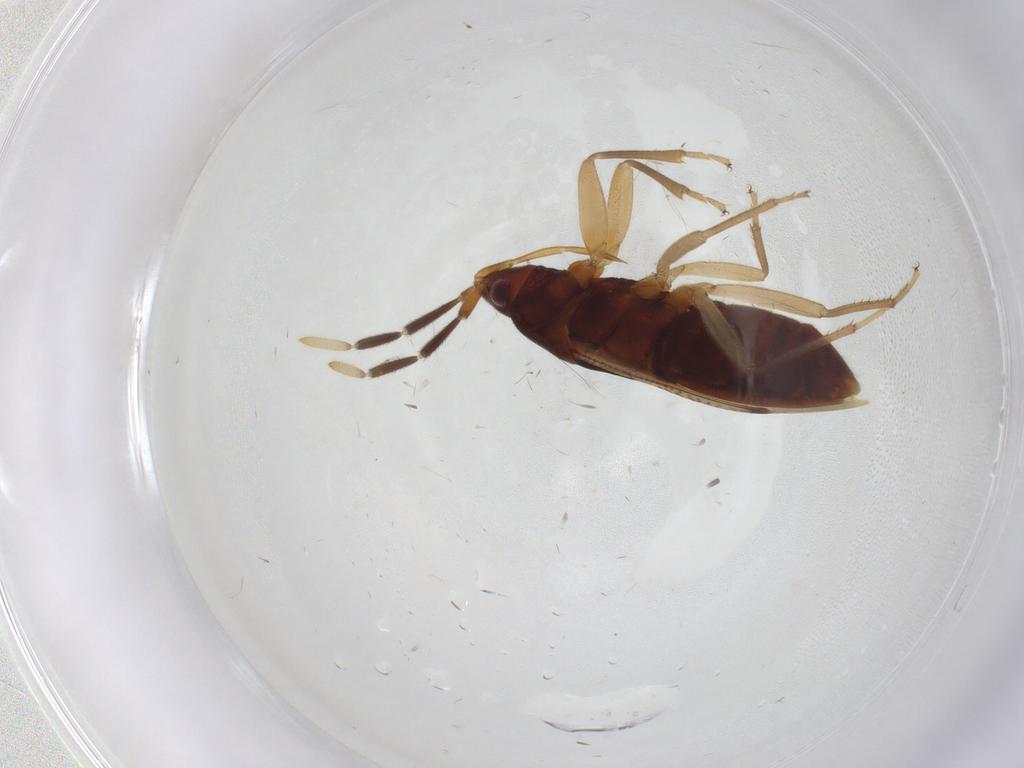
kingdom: Animalia
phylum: Arthropoda
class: Insecta
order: Hemiptera
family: Rhyparochromidae
